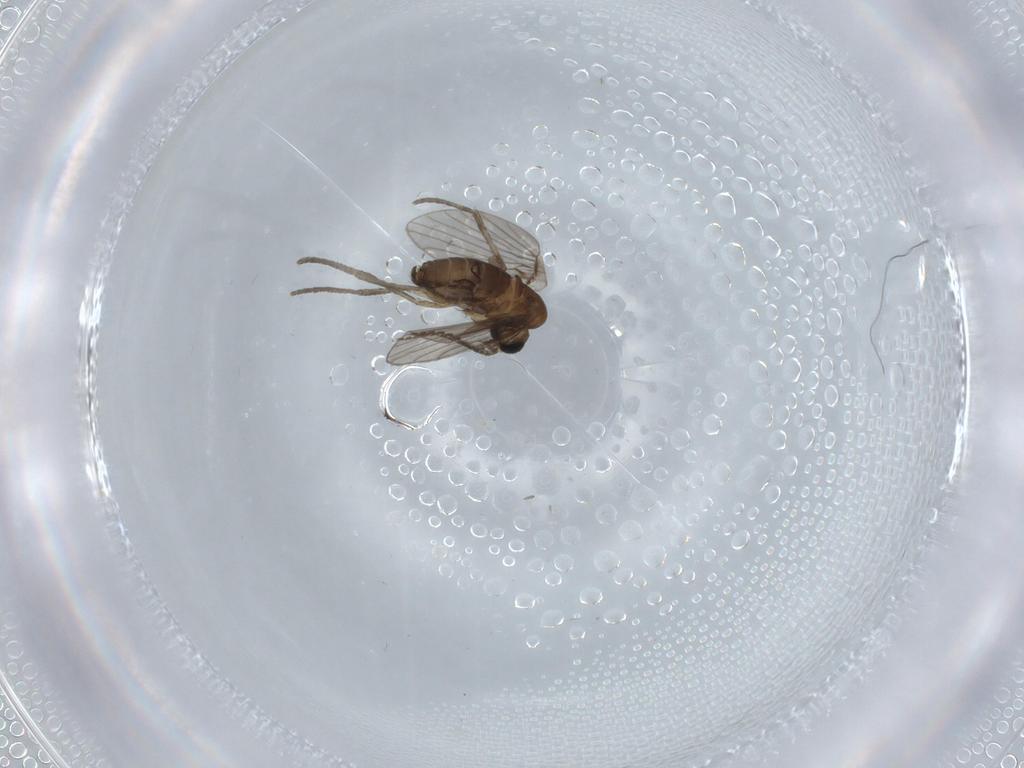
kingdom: Animalia
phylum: Arthropoda
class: Insecta
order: Diptera
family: Psychodidae
